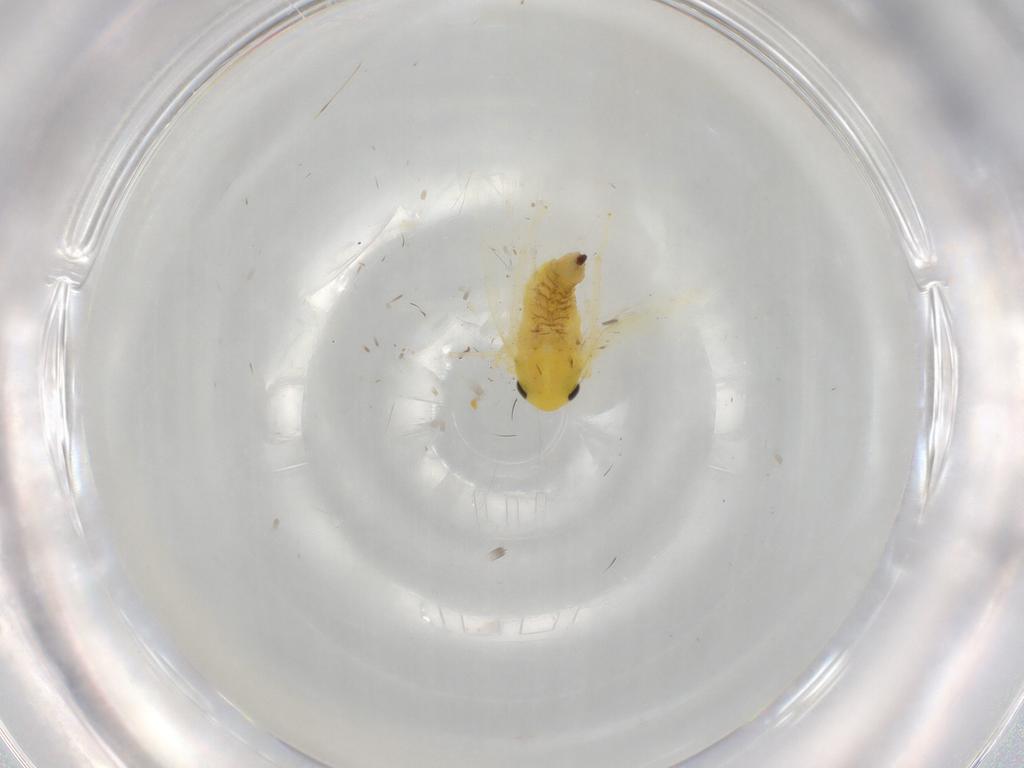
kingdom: Animalia
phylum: Arthropoda
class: Insecta
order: Hemiptera
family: Cicadellidae
